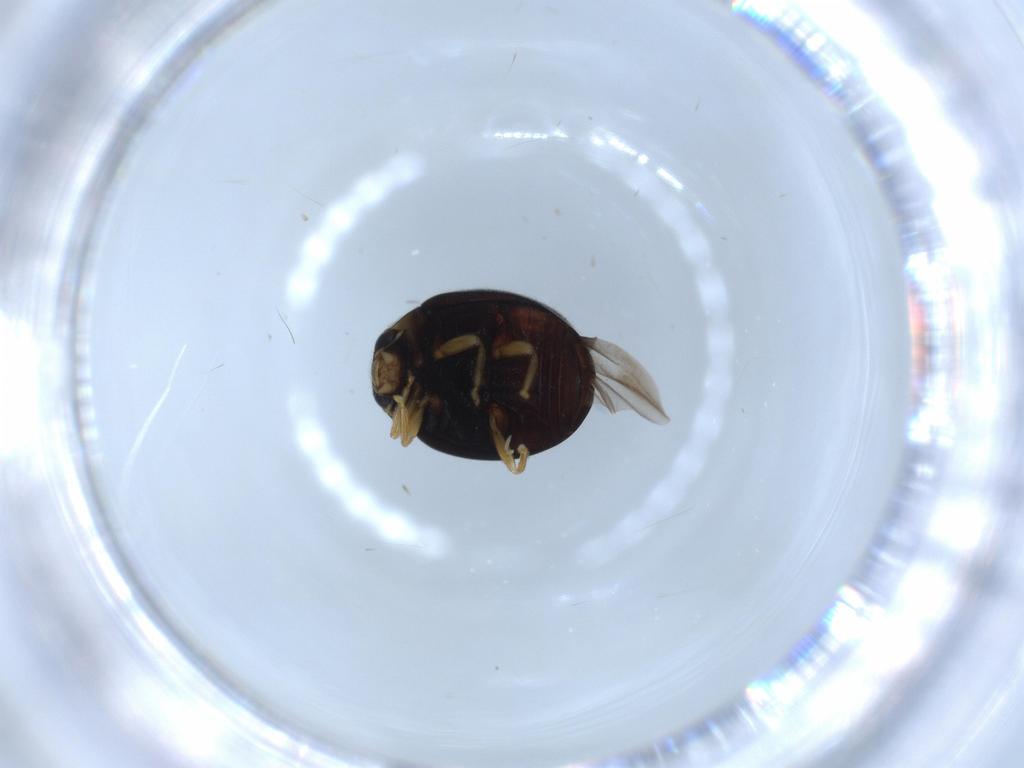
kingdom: Animalia
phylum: Arthropoda
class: Insecta
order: Coleoptera
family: Coccinellidae
